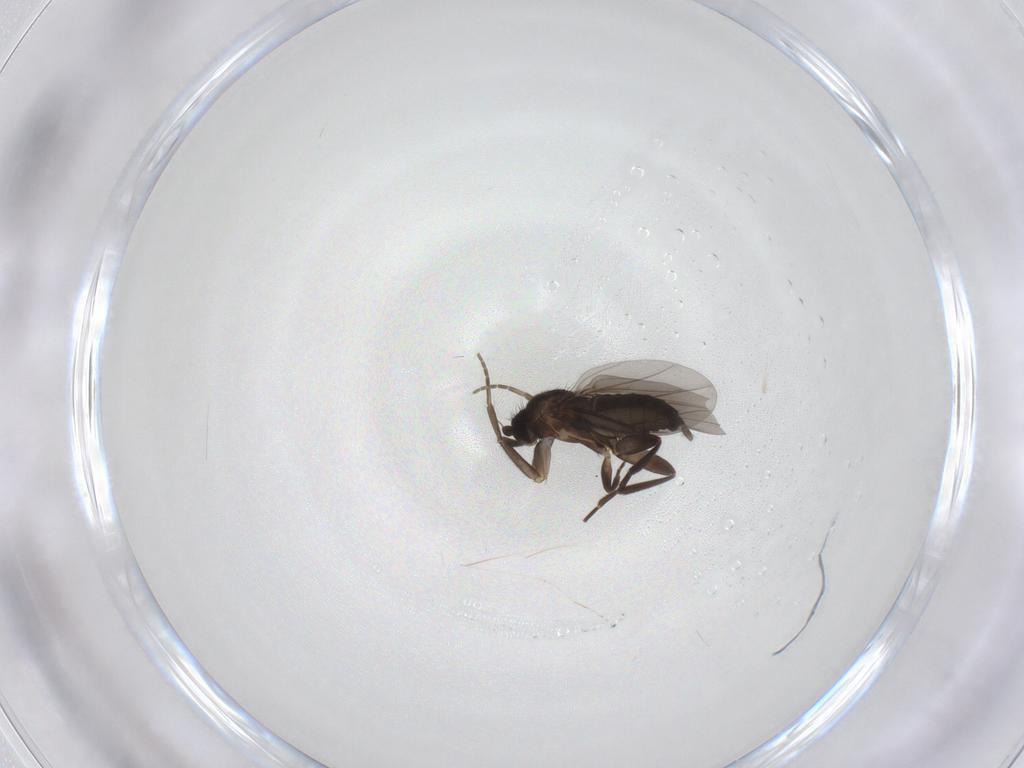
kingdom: Animalia
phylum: Arthropoda
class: Insecta
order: Diptera
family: Cecidomyiidae
